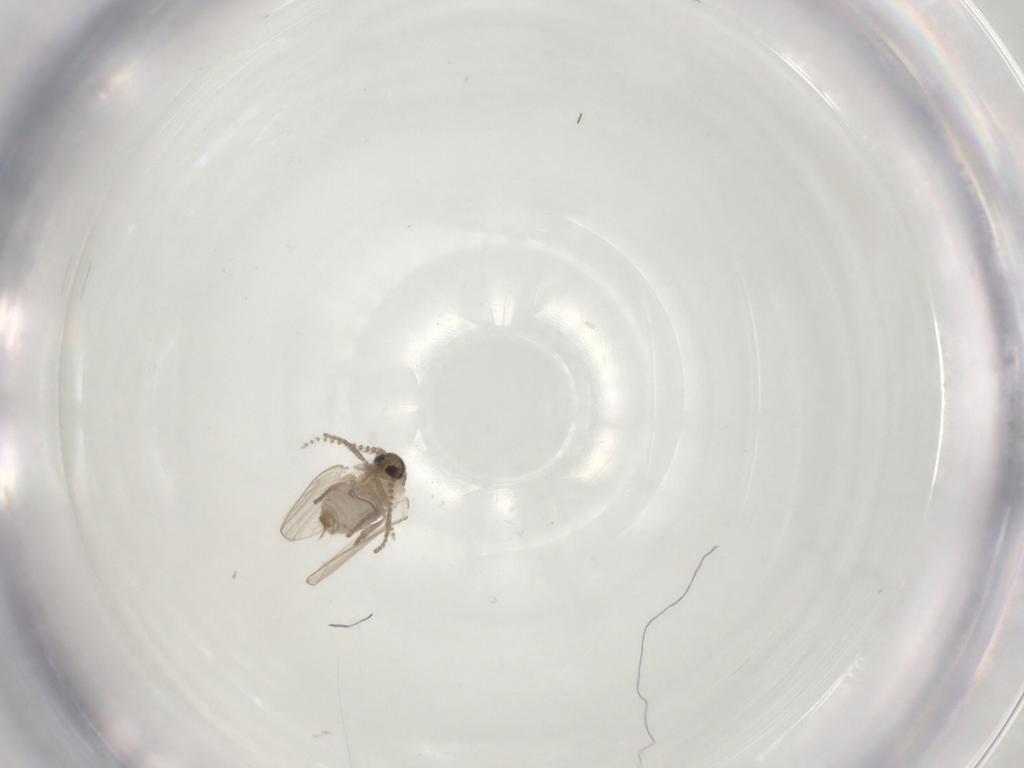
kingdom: Animalia
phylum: Arthropoda
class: Insecta
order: Diptera
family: Psychodidae
